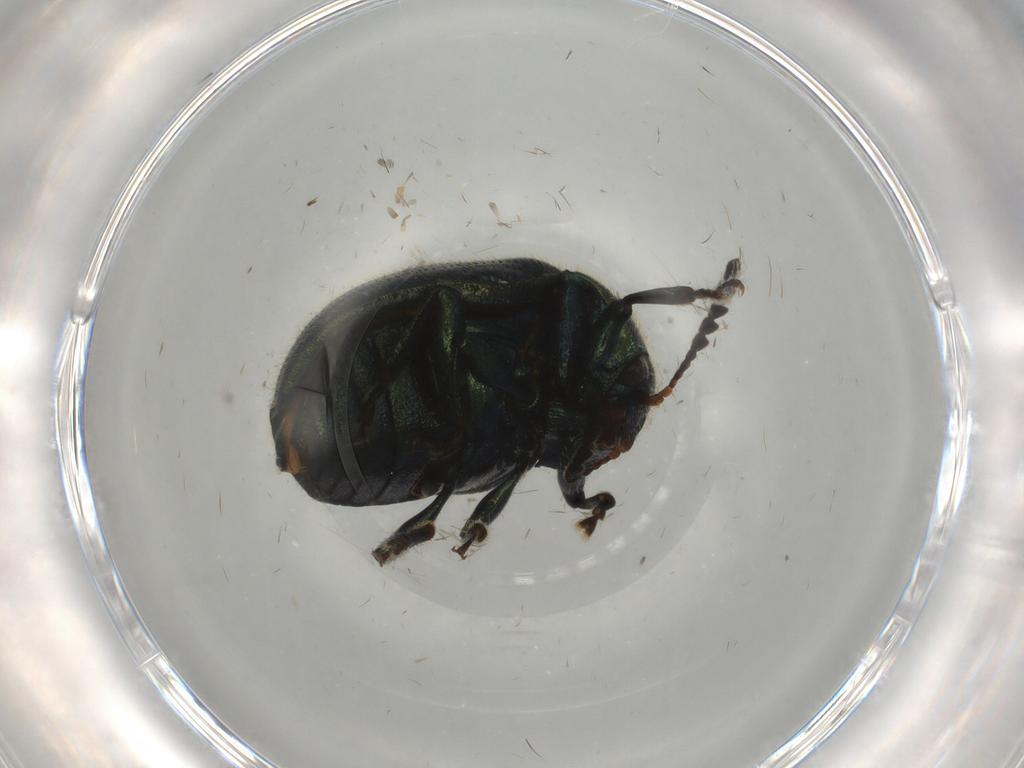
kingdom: Animalia
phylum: Arthropoda
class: Insecta
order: Coleoptera
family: Chrysomelidae
